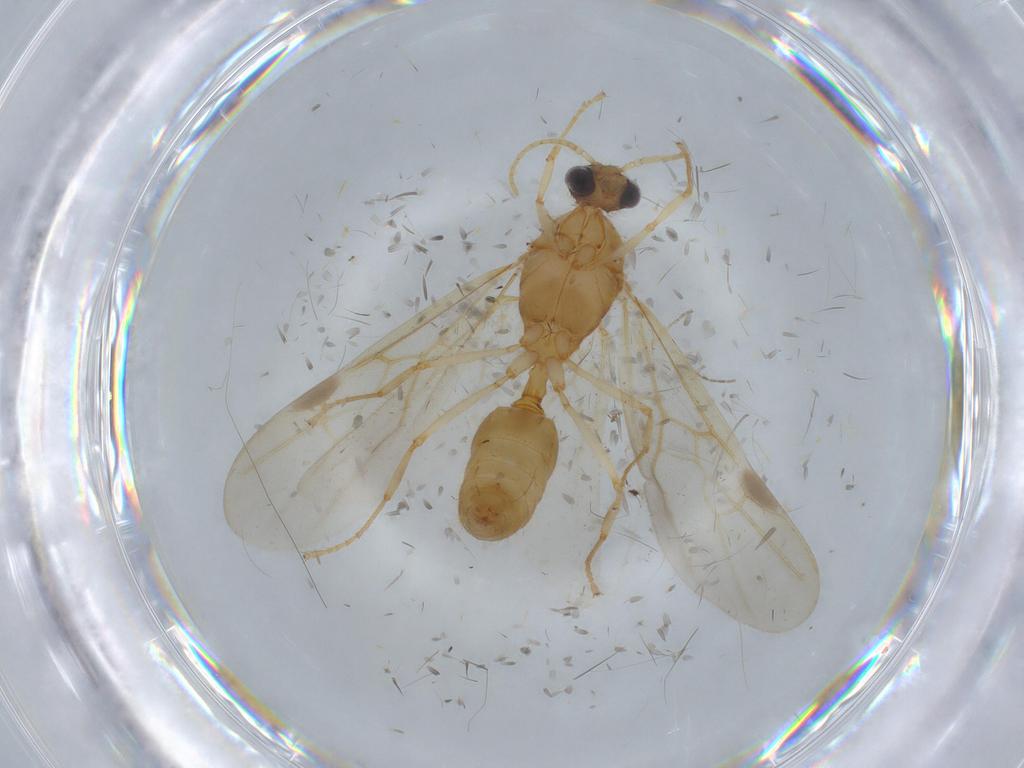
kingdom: Animalia
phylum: Arthropoda
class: Insecta
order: Hymenoptera
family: Formicidae
